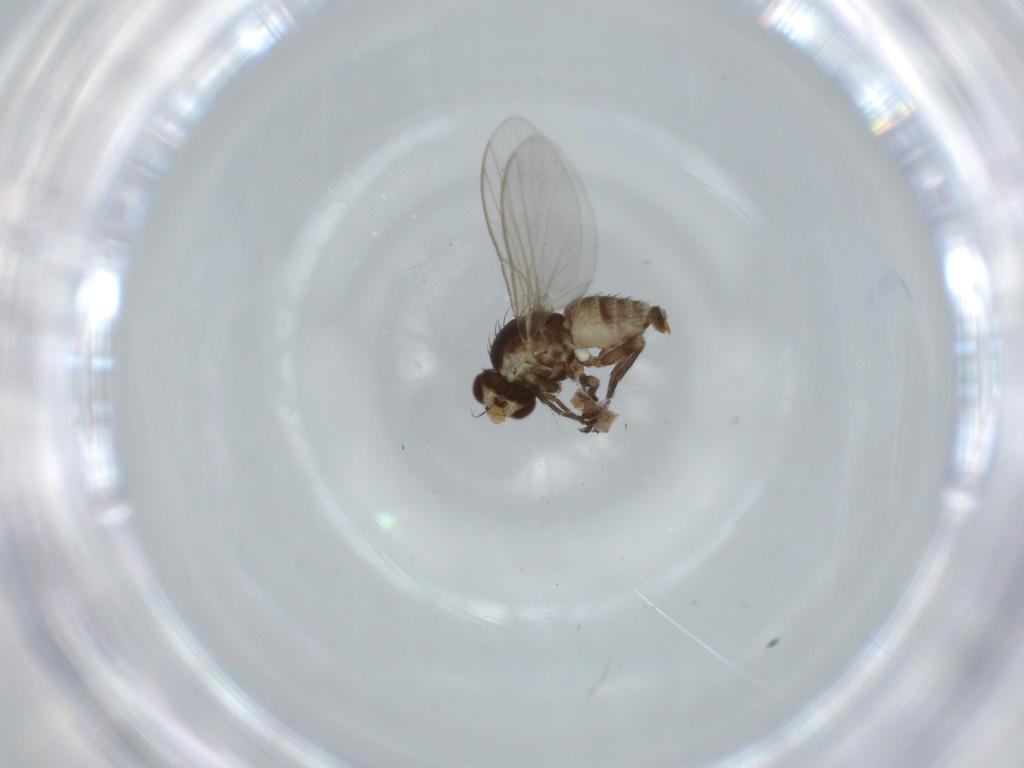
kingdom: Animalia
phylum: Arthropoda
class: Insecta
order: Diptera
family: Agromyzidae
